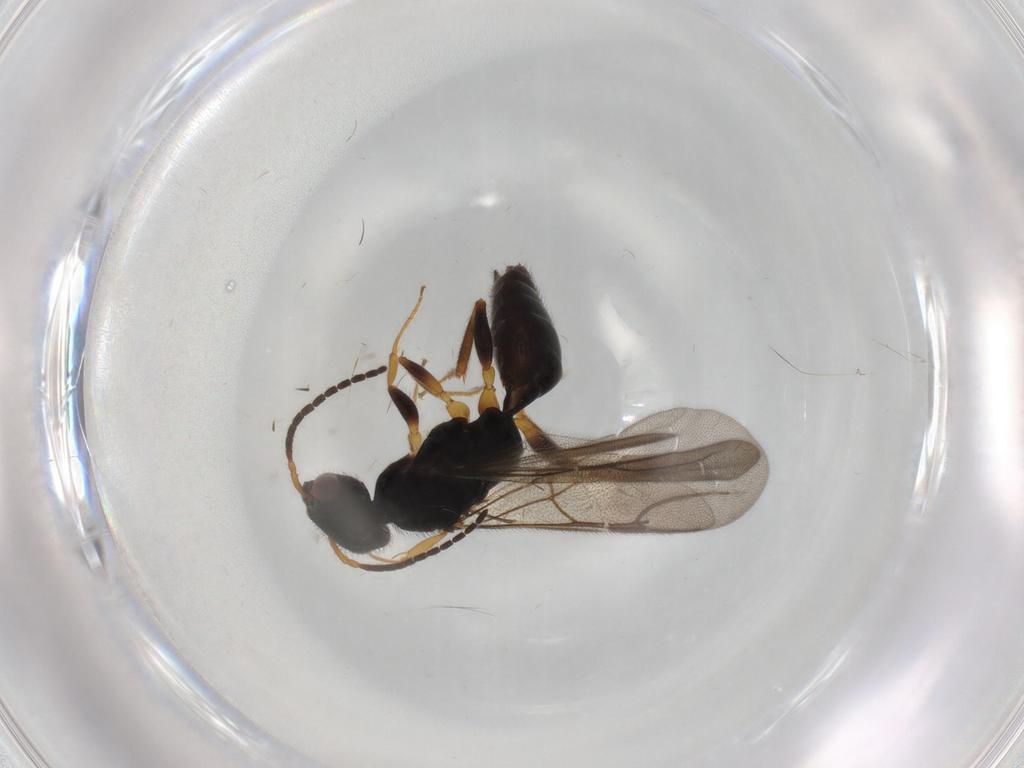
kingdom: Animalia
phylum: Arthropoda
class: Insecta
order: Hymenoptera
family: Bethylidae
